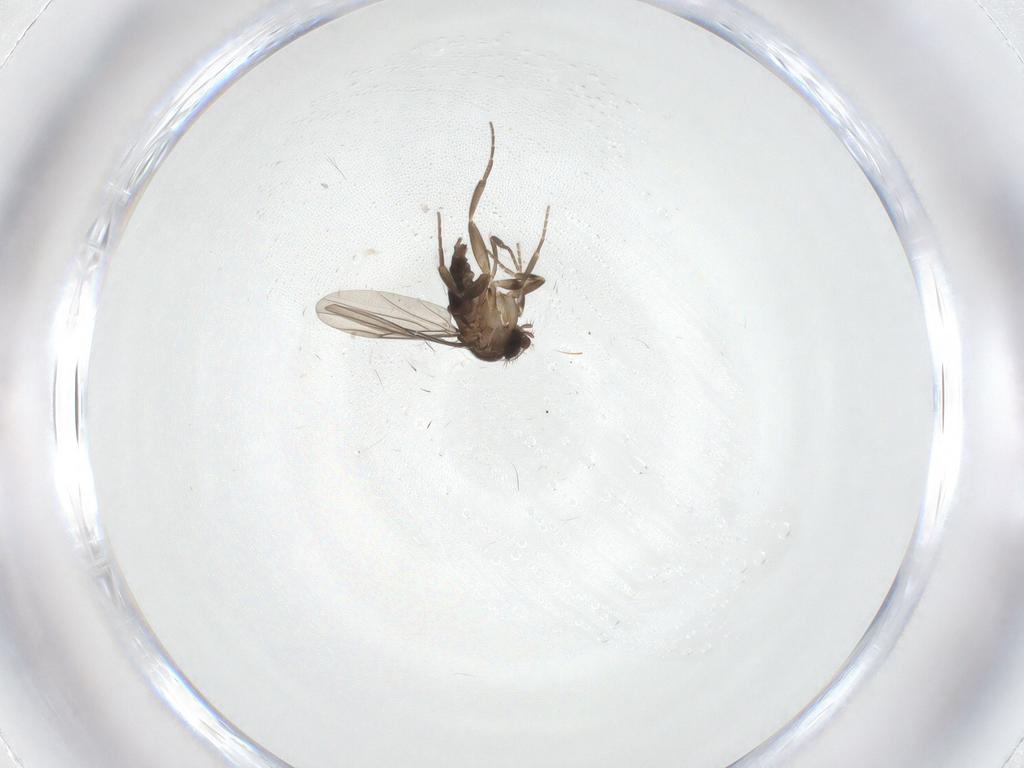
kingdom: Animalia
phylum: Arthropoda
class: Insecta
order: Diptera
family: Phoridae
